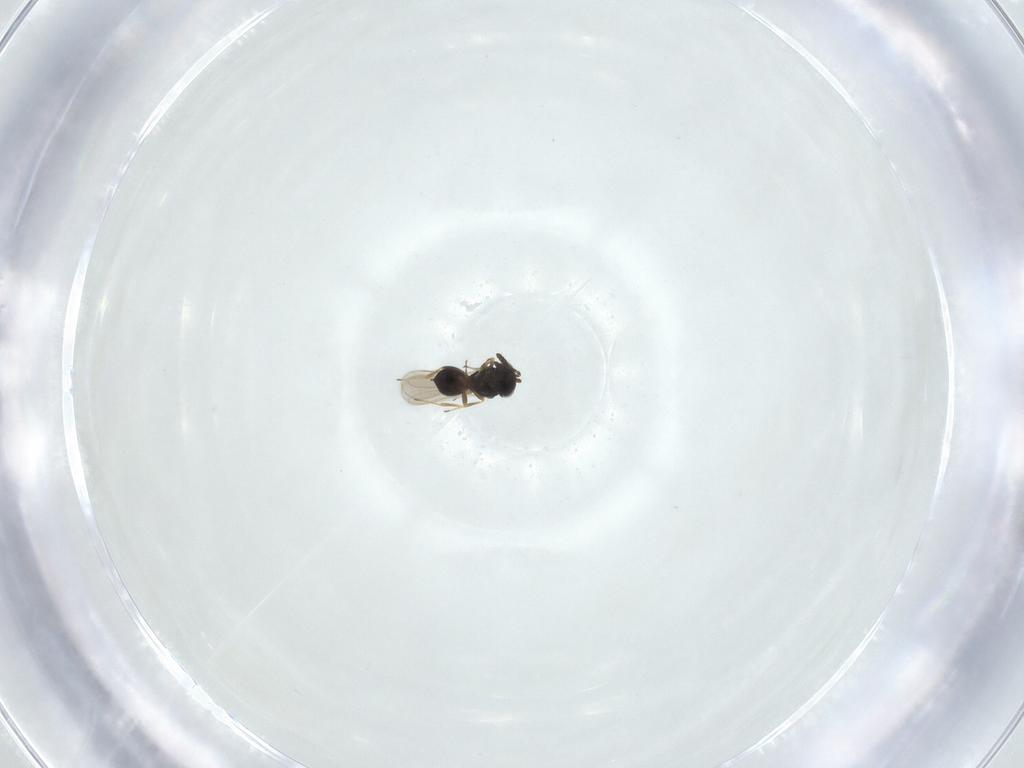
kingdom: Animalia
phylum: Arthropoda
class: Insecta
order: Hymenoptera
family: Scelionidae
